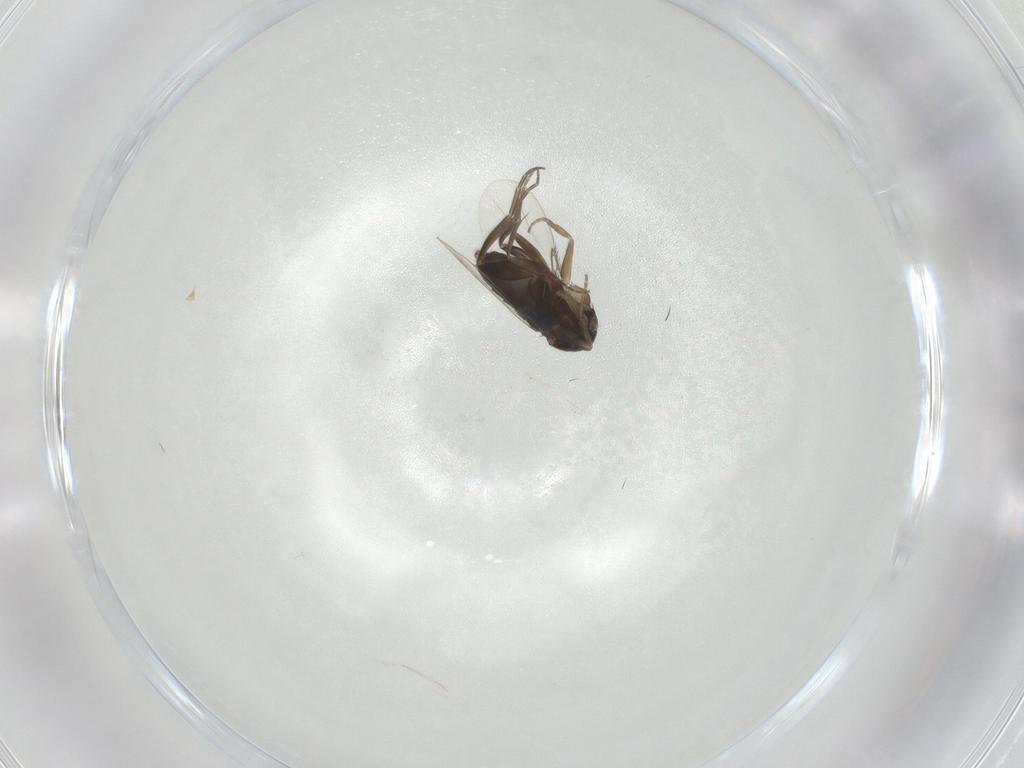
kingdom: Animalia
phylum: Arthropoda
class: Insecta
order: Diptera
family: Phoridae
